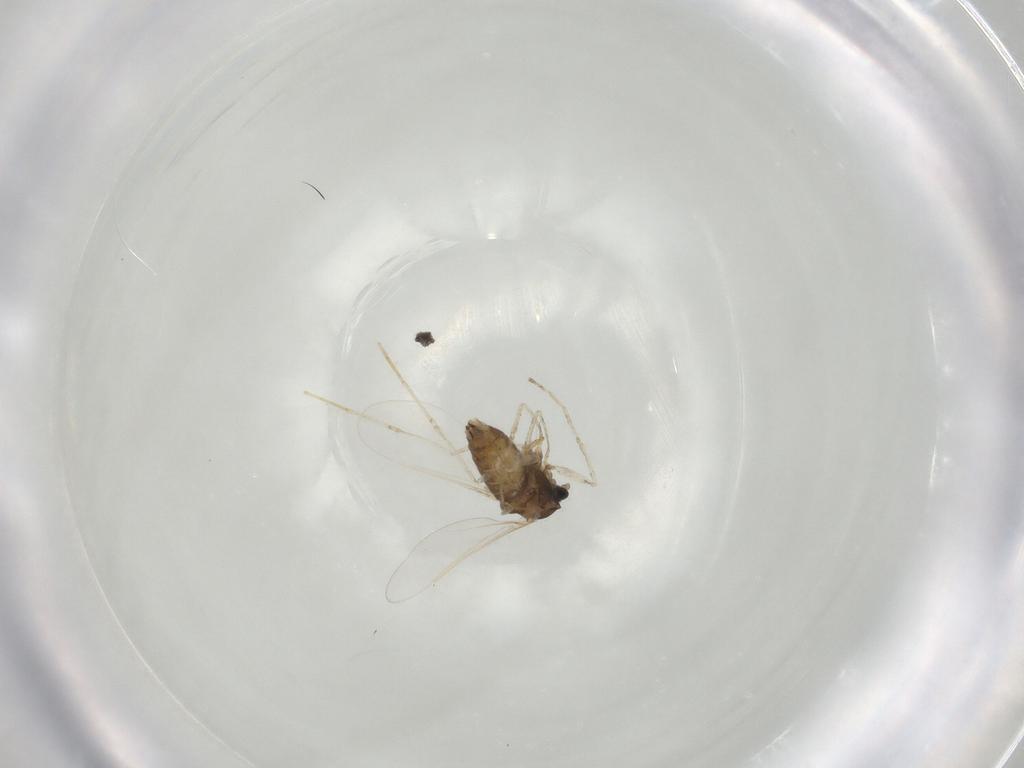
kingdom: Animalia
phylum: Arthropoda
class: Insecta
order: Diptera
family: Cecidomyiidae
